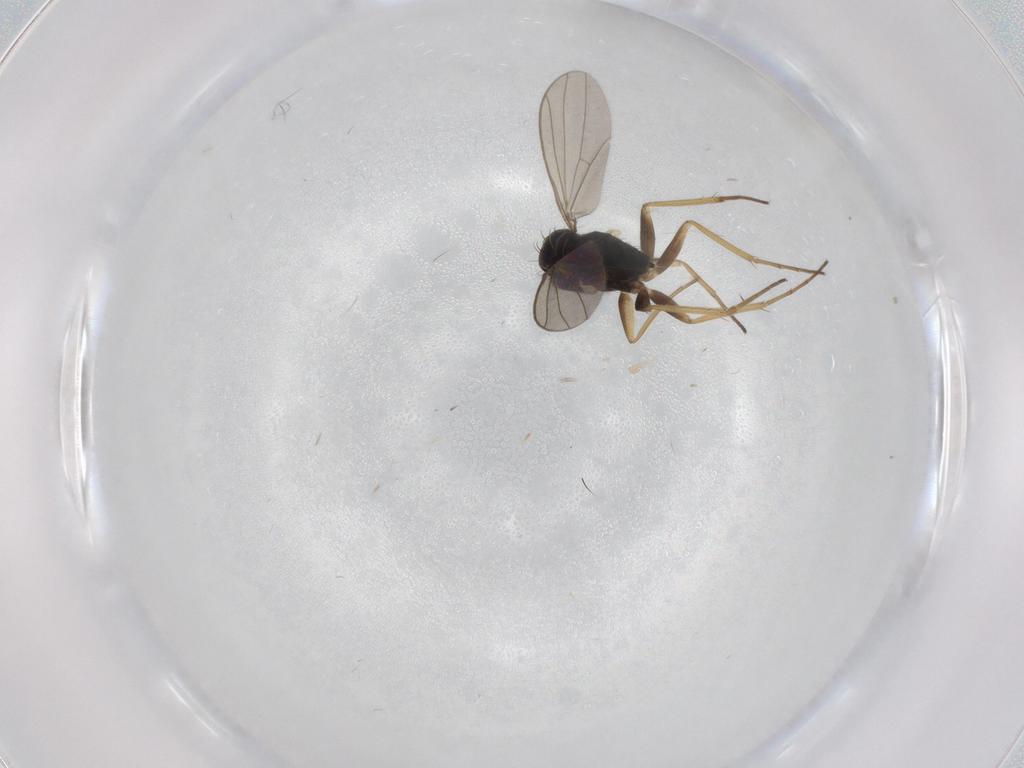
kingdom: Animalia
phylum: Arthropoda
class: Insecta
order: Diptera
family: Dolichopodidae
